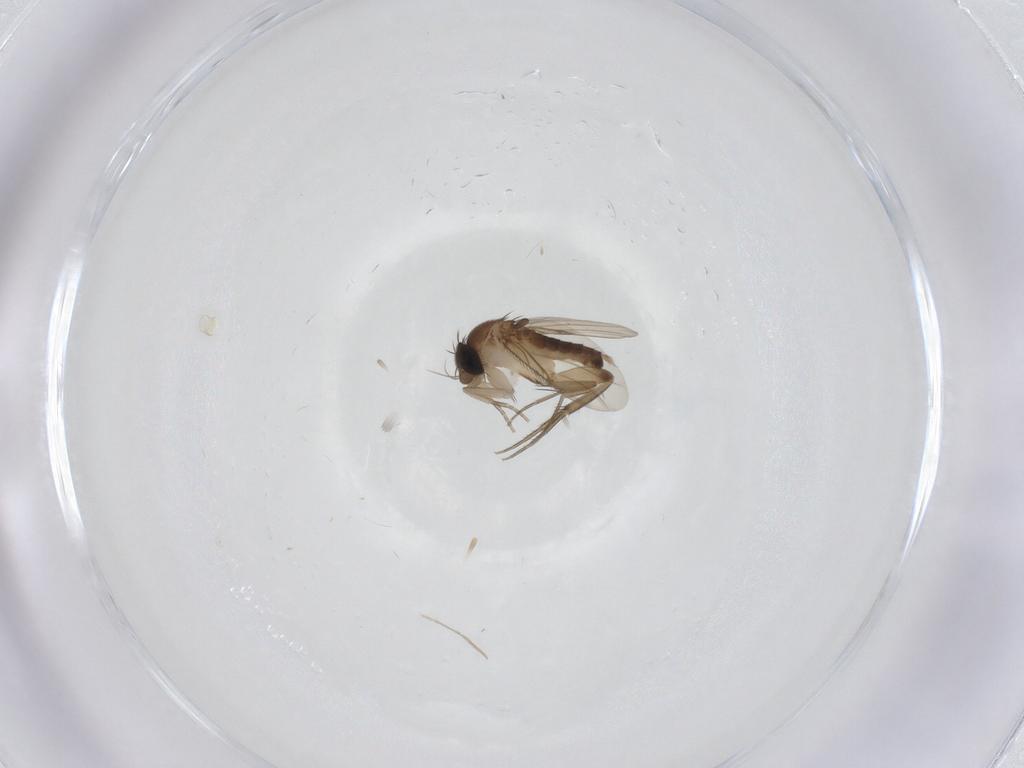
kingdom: Animalia
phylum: Arthropoda
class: Insecta
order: Diptera
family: Phoridae
